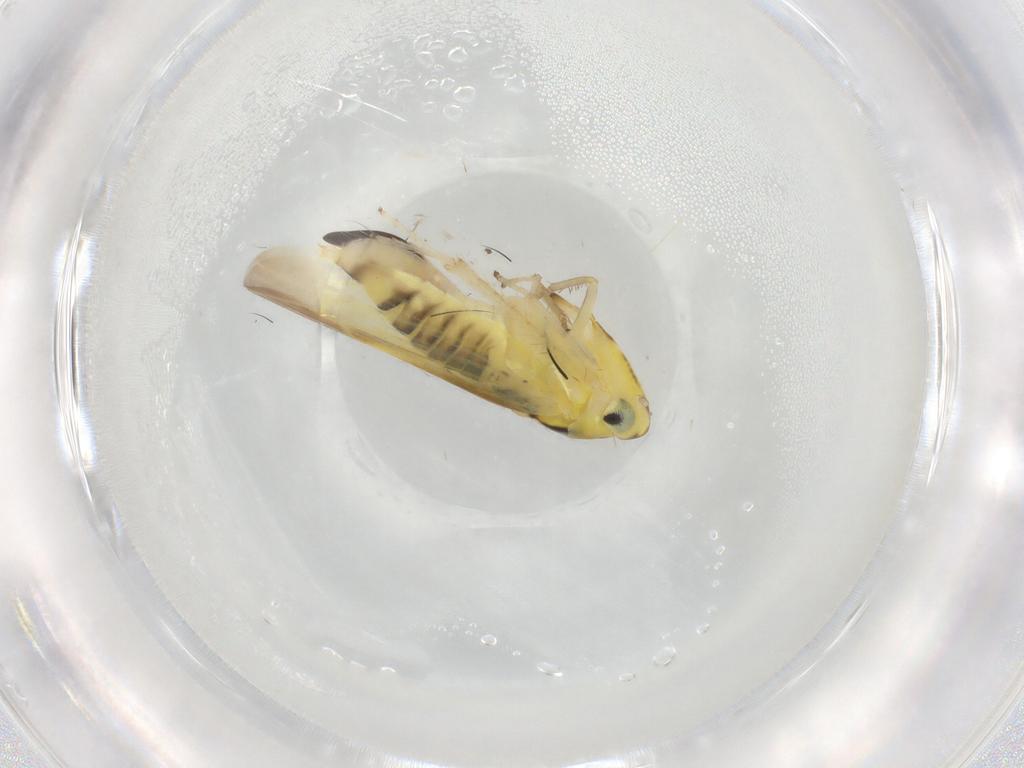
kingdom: Animalia
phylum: Arthropoda
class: Insecta
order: Hemiptera
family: Cicadellidae
